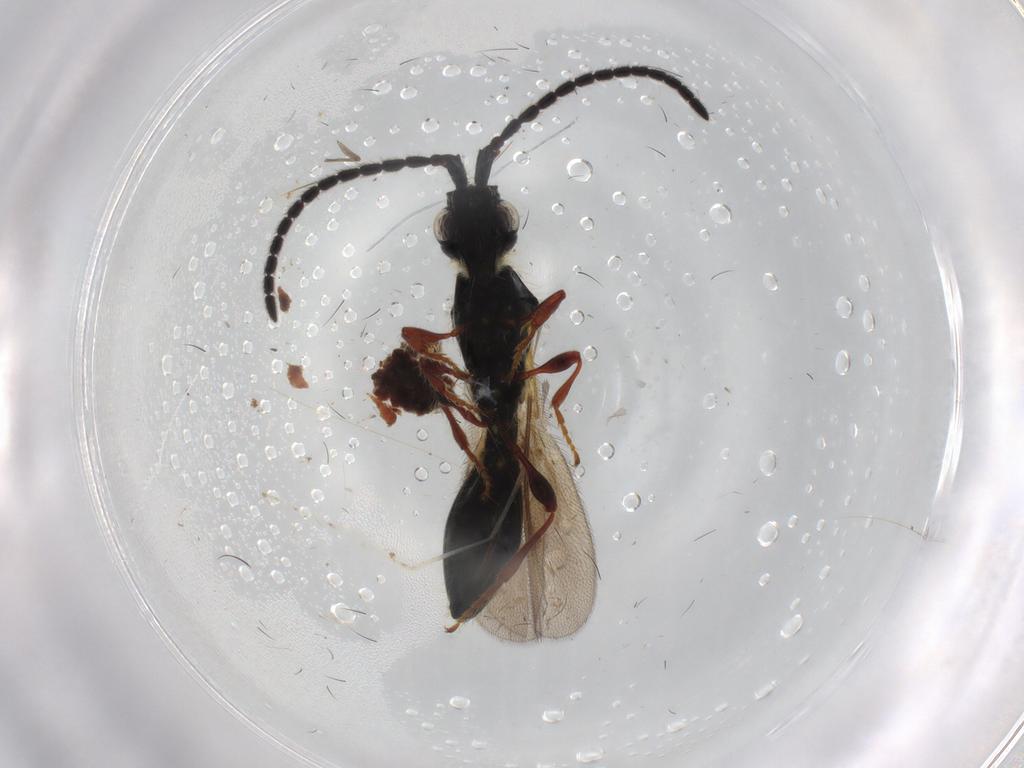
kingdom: Animalia
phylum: Arthropoda
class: Insecta
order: Hymenoptera
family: Diapriidae
